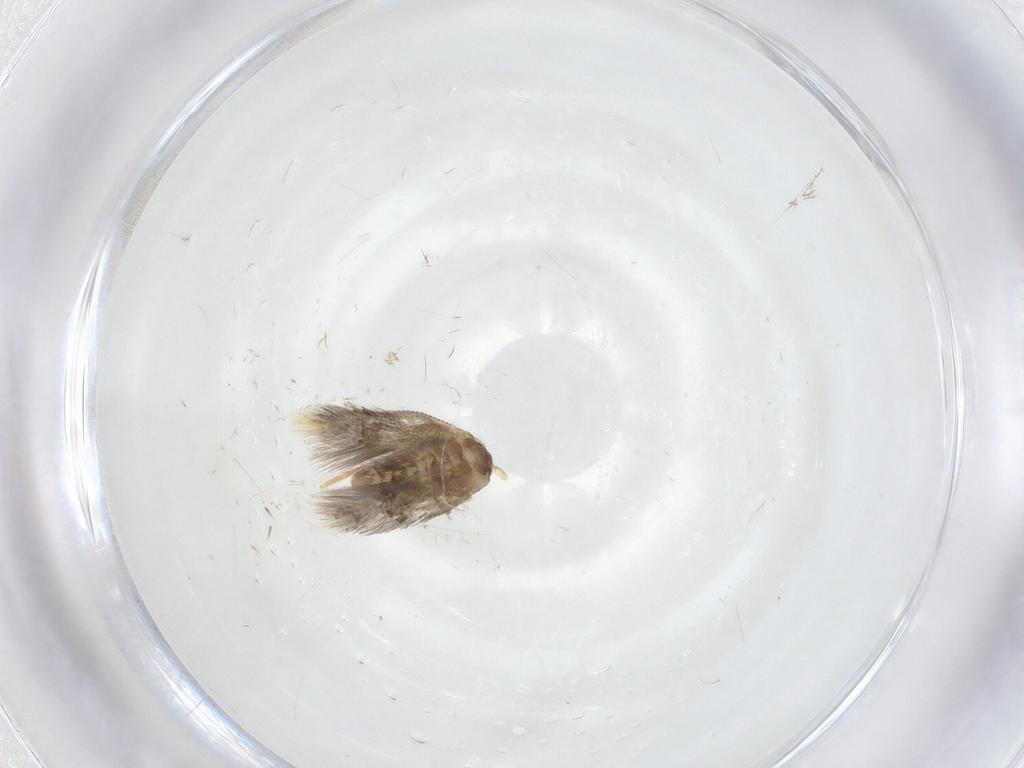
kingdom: Animalia
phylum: Arthropoda
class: Insecta
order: Lepidoptera
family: Nepticulidae
